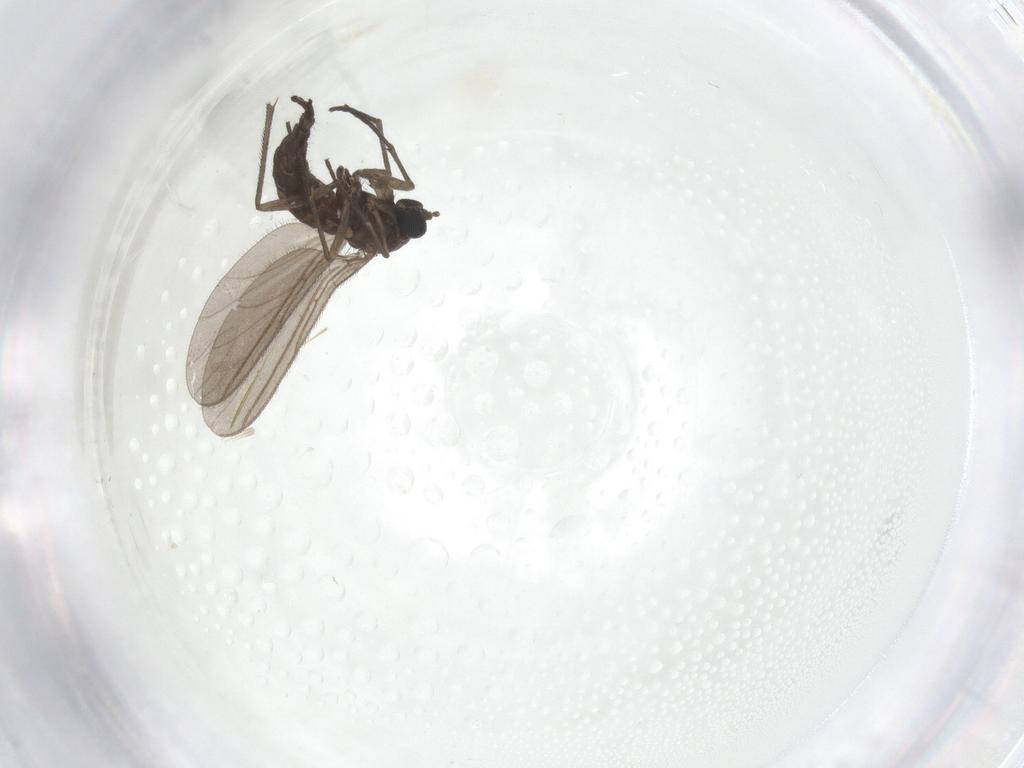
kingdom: Animalia
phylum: Arthropoda
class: Insecta
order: Diptera
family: Sciaridae
